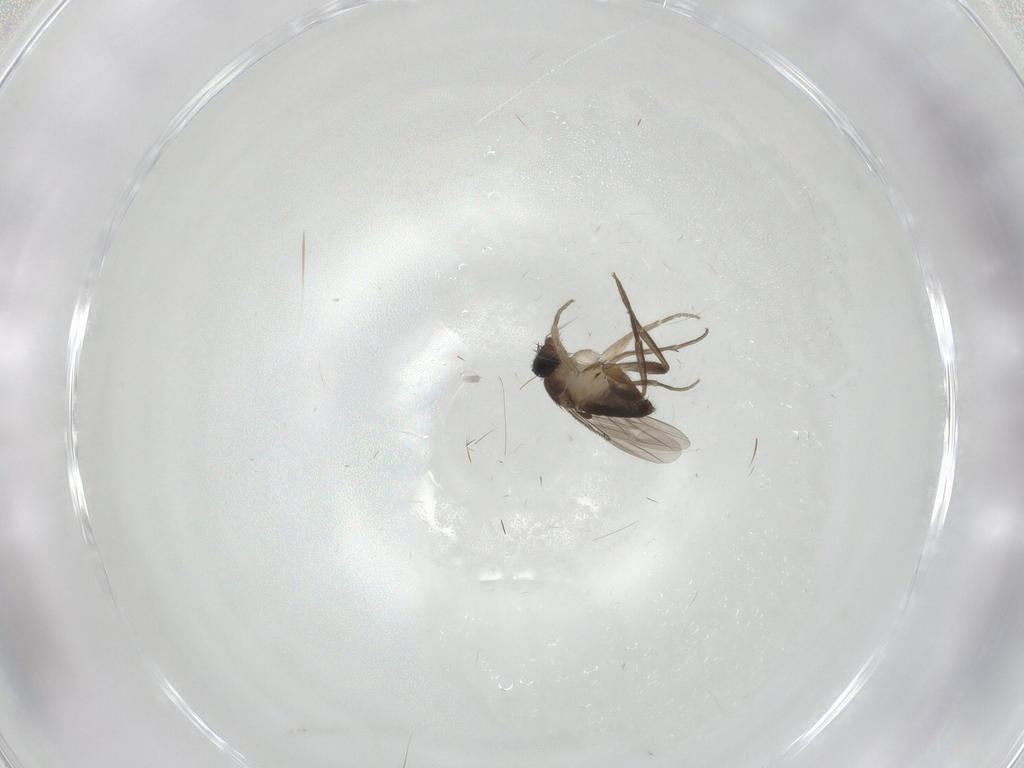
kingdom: Animalia
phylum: Arthropoda
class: Insecta
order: Diptera
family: Phoridae
